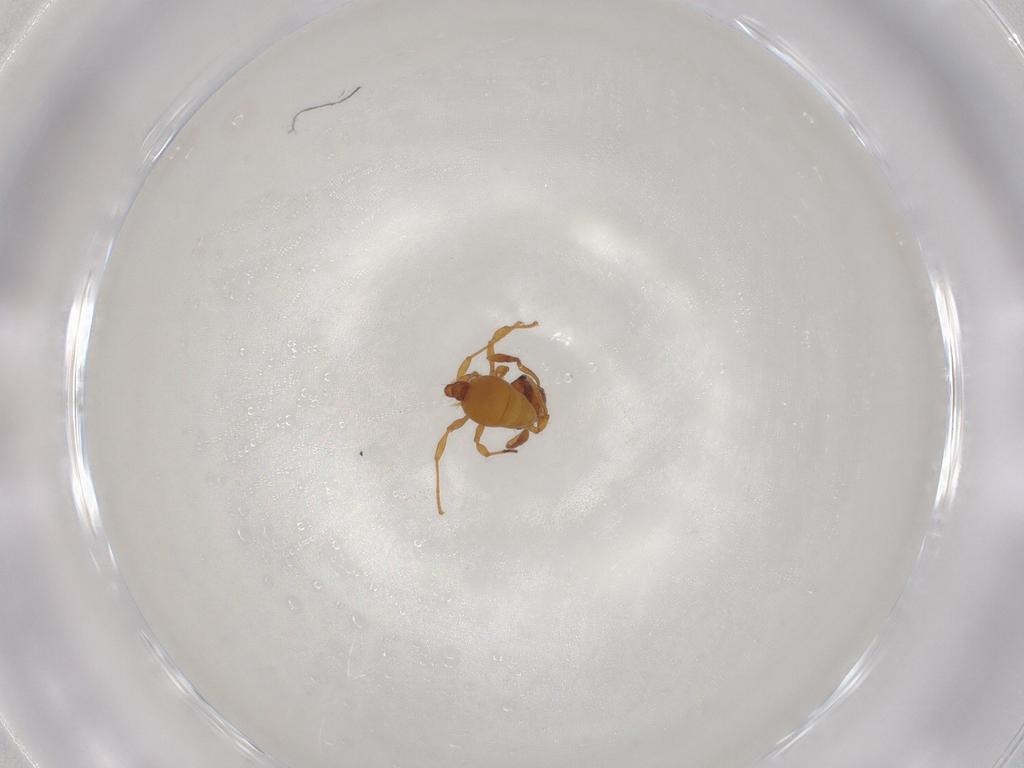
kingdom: Animalia
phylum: Arthropoda
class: Insecta
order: Hymenoptera
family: Formicidae
